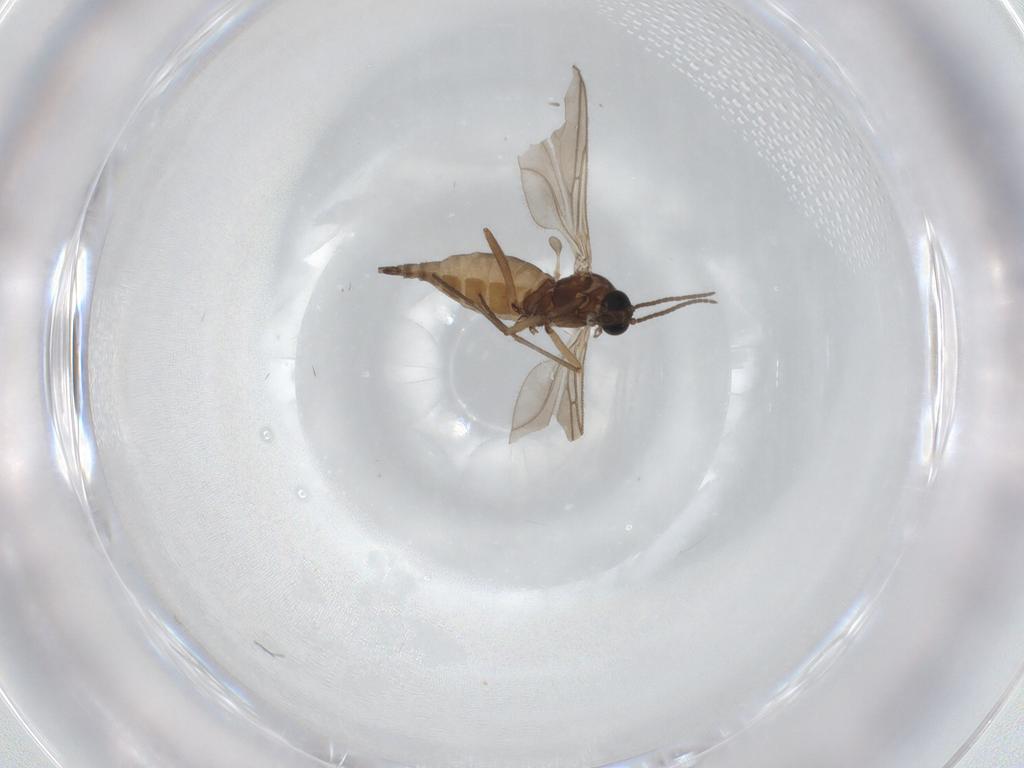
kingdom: Animalia
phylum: Arthropoda
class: Insecta
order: Diptera
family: Sciaridae
